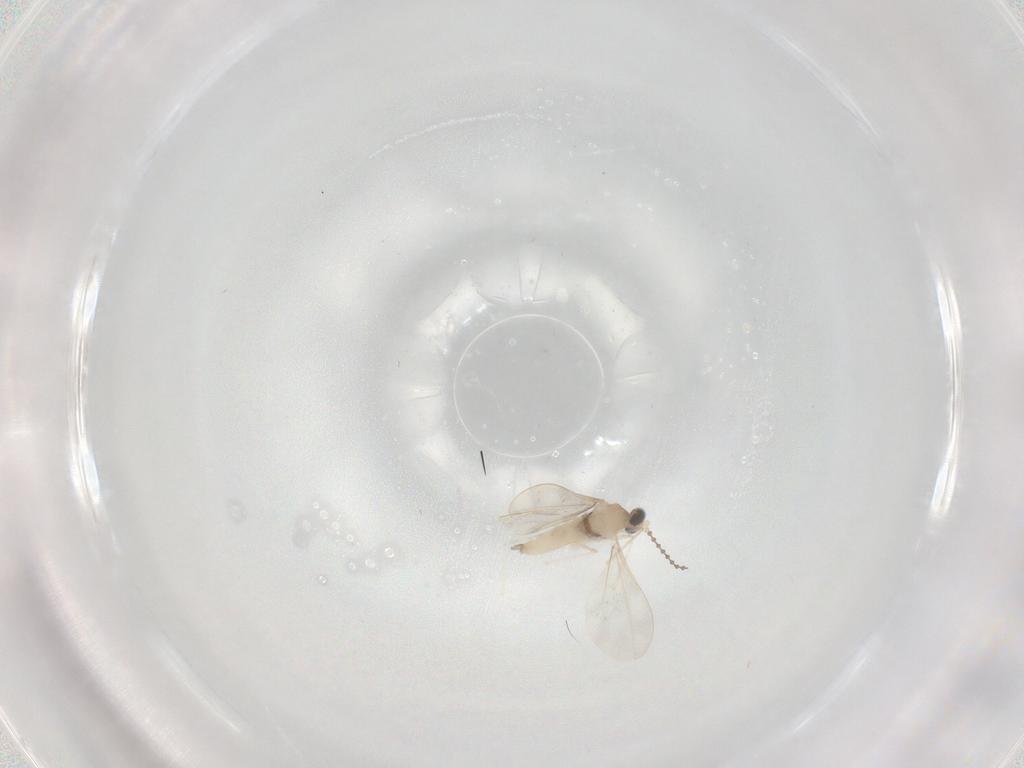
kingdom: Animalia
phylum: Arthropoda
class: Insecta
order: Diptera
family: Cecidomyiidae
